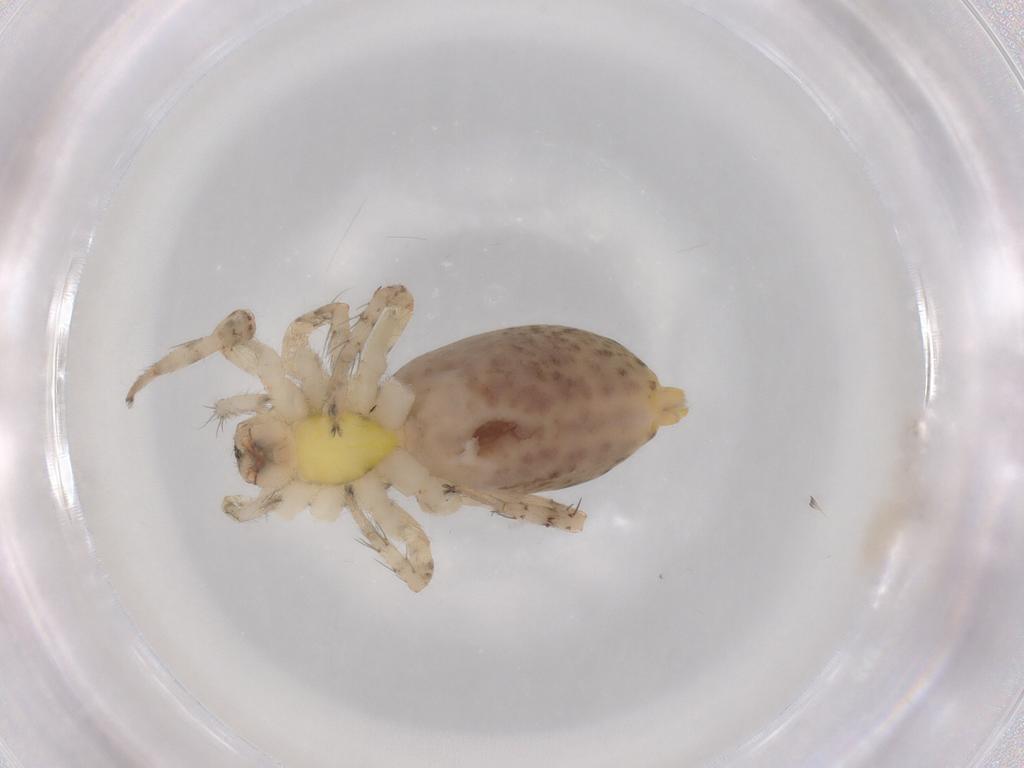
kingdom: Animalia
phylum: Arthropoda
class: Arachnida
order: Araneae
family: Anyphaenidae
